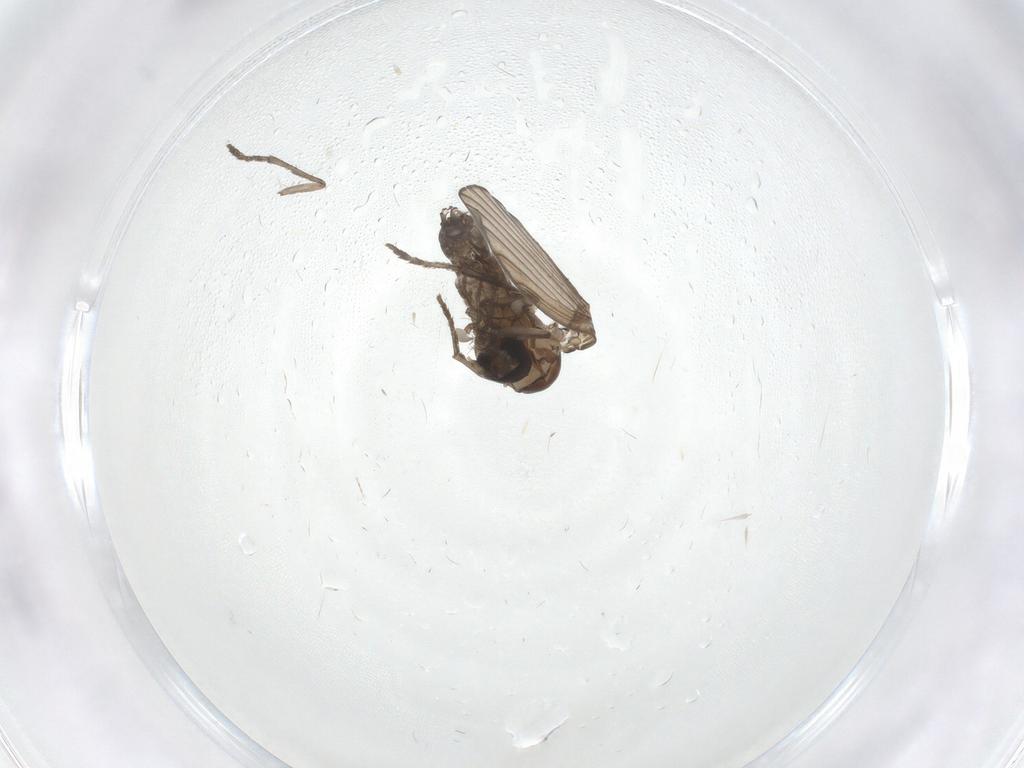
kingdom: Animalia
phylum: Arthropoda
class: Insecta
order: Diptera
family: Psychodidae
